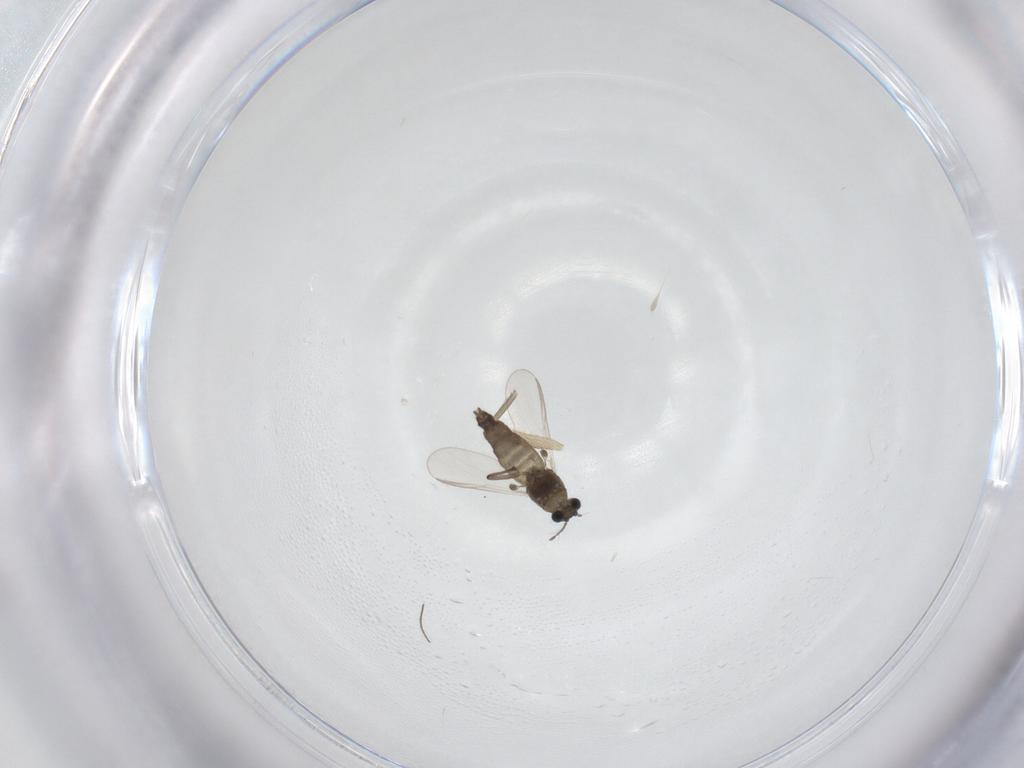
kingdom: Animalia
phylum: Arthropoda
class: Insecta
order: Diptera
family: Chironomidae
